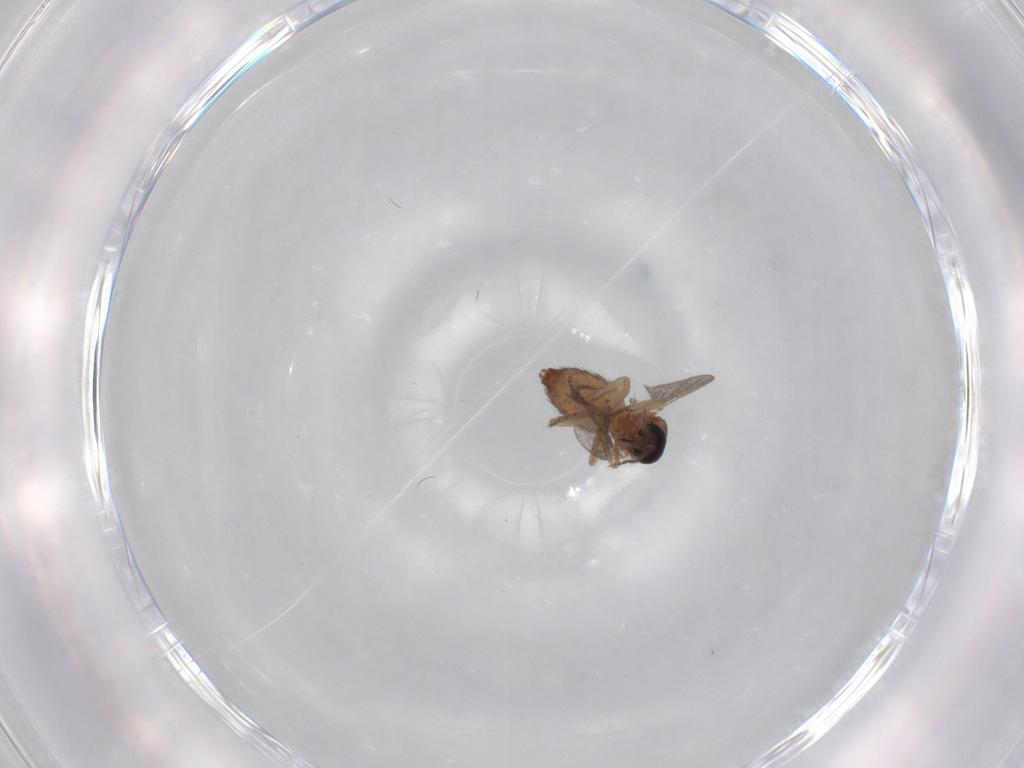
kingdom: Animalia
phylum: Arthropoda
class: Insecta
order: Diptera
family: Ceratopogonidae
